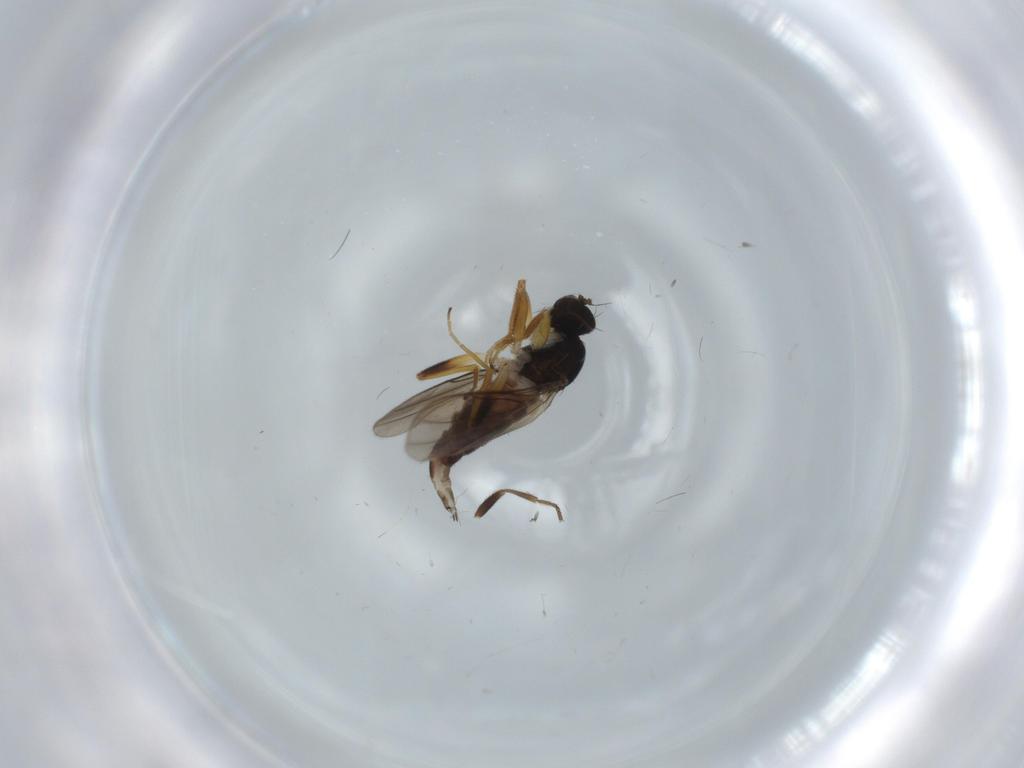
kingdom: Animalia
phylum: Arthropoda
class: Insecta
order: Diptera
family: Hybotidae
